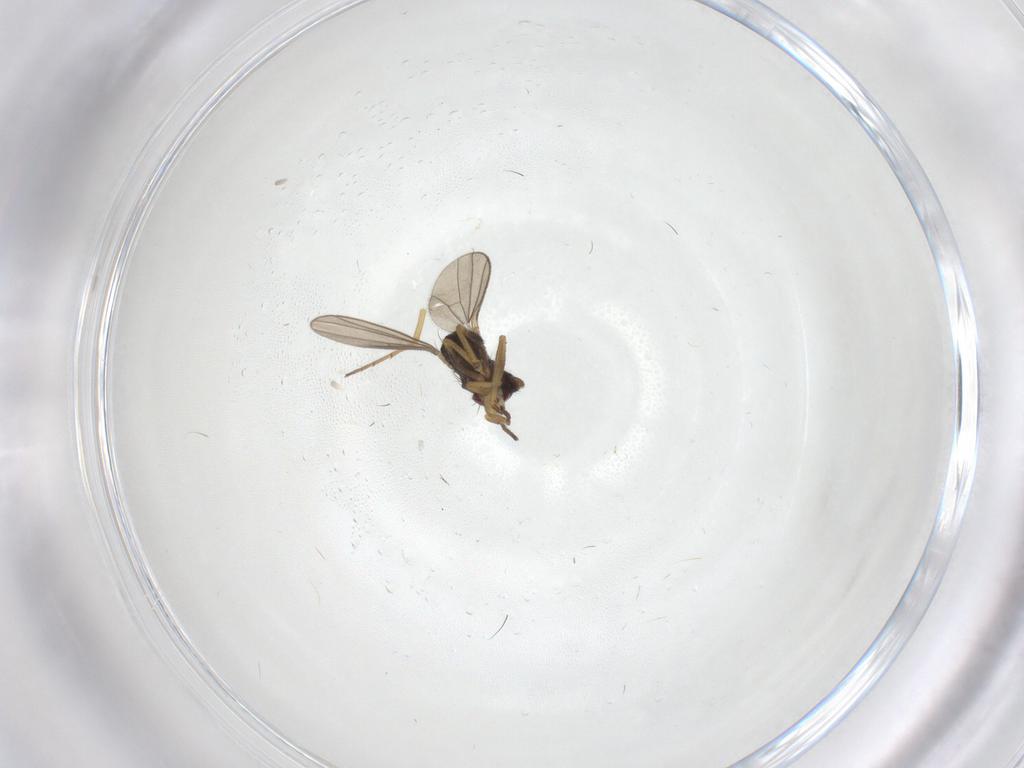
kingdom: Animalia
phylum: Arthropoda
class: Insecta
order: Diptera
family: Dolichopodidae
